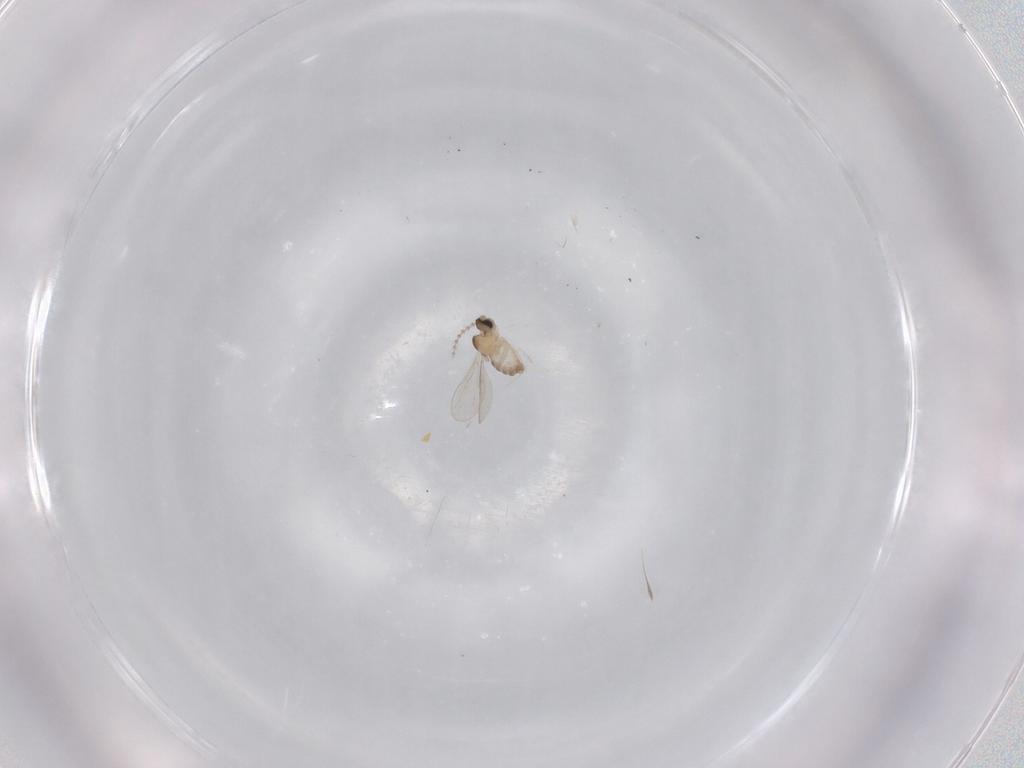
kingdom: Animalia
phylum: Arthropoda
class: Insecta
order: Diptera
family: Cecidomyiidae
